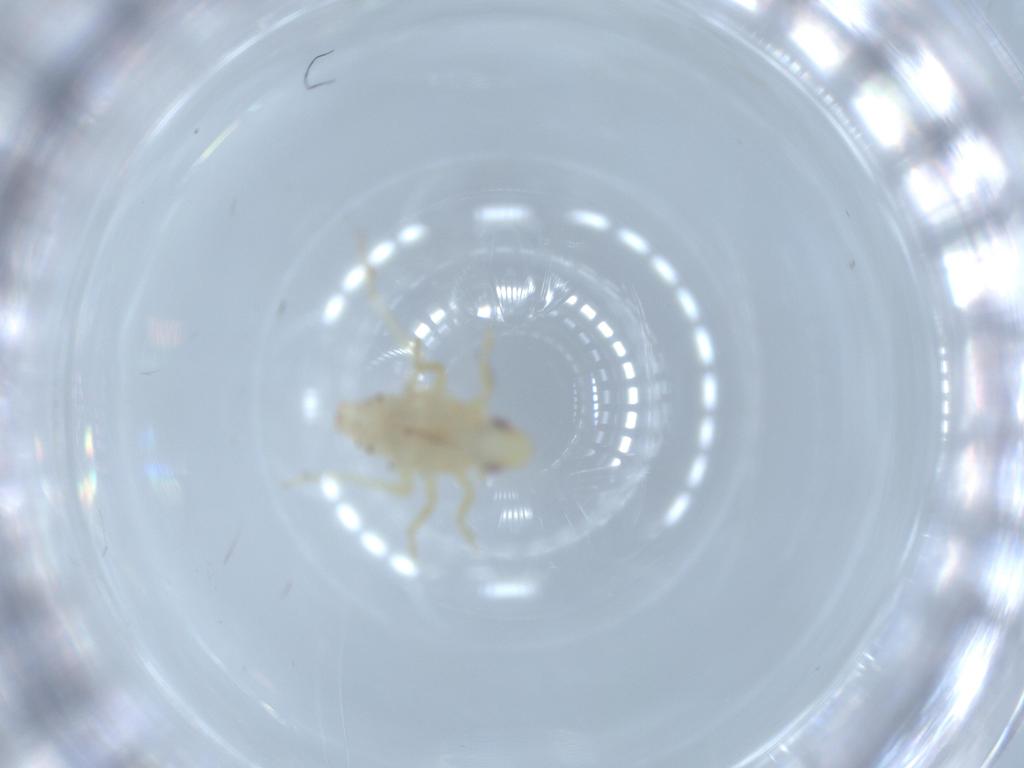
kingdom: Animalia
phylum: Arthropoda
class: Insecta
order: Hemiptera
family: Tropiduchidae
